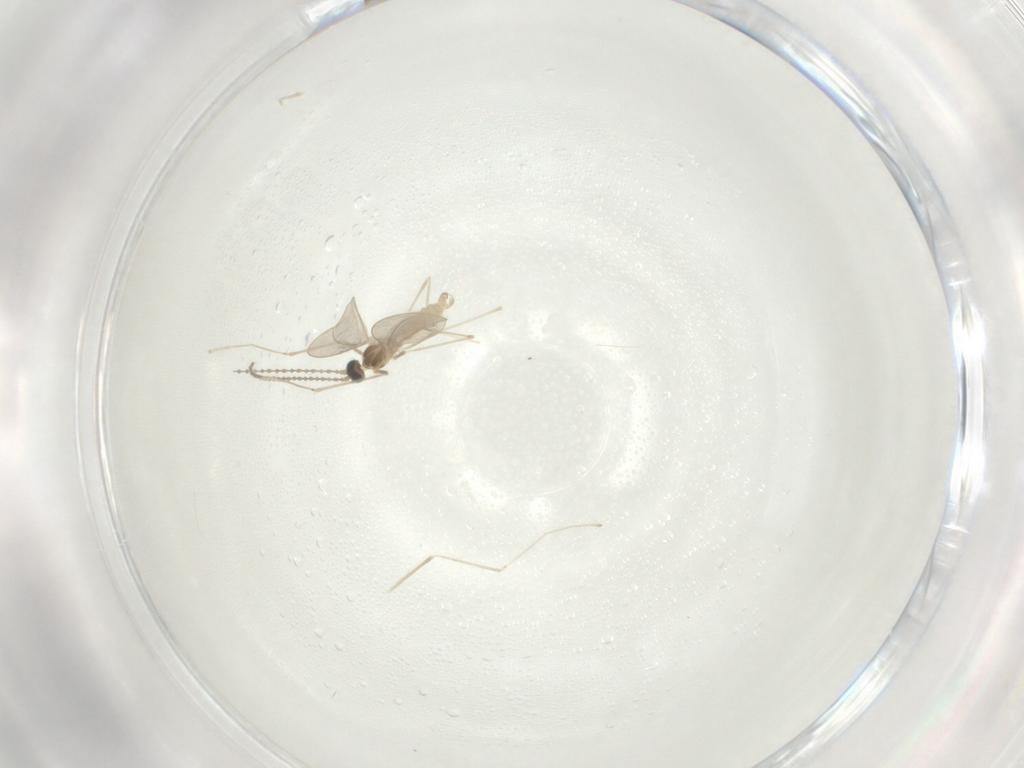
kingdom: Animalia
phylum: Arthropoda
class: Insecta
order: Diptera
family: Cecidomyiidae
